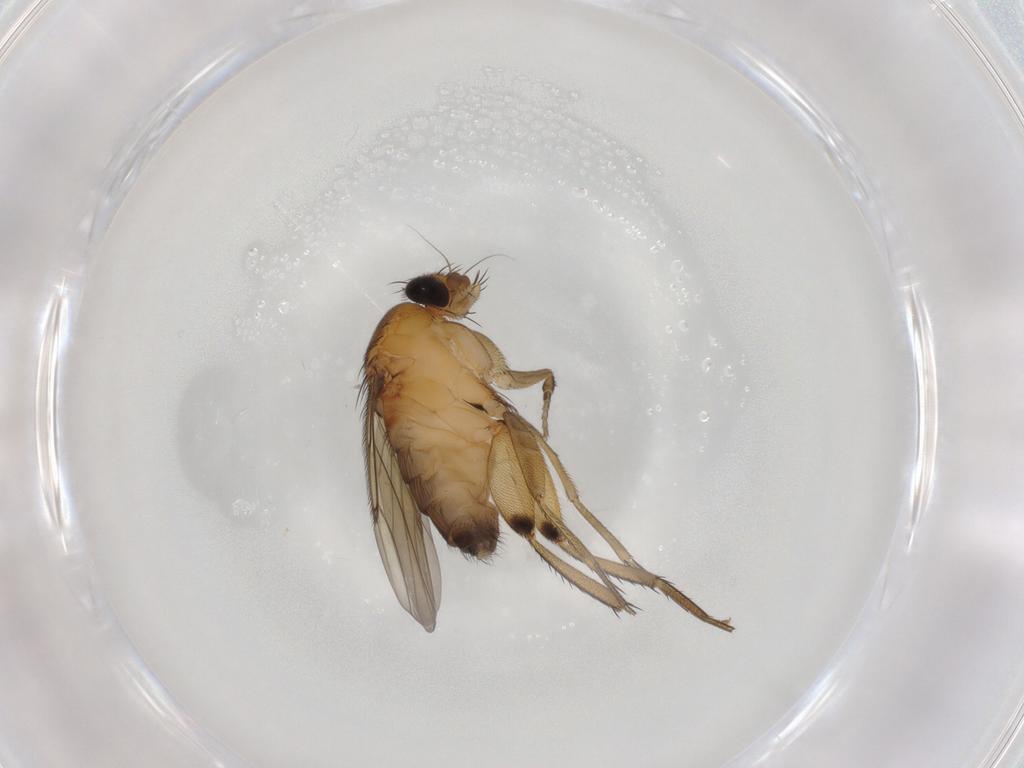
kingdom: Animalia
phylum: Arthropoda
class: Insecta
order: Diptera
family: Phoridae
